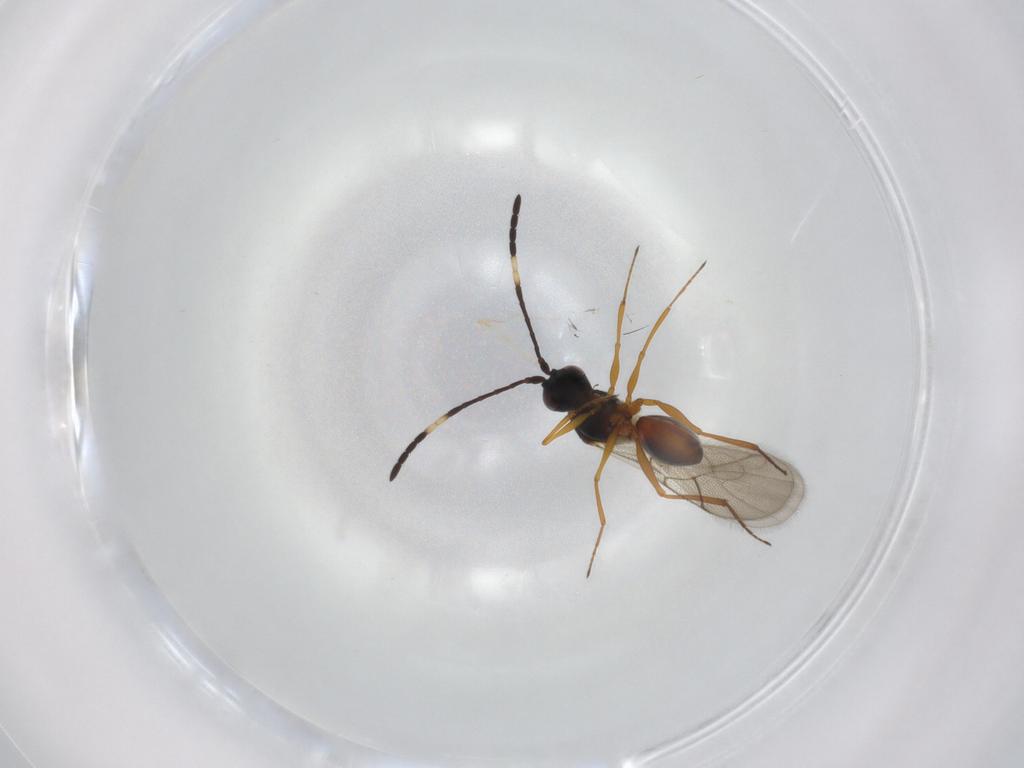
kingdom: Animalia
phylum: Arthropoda
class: Insecta
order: Hymenoptera
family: Figitidae
